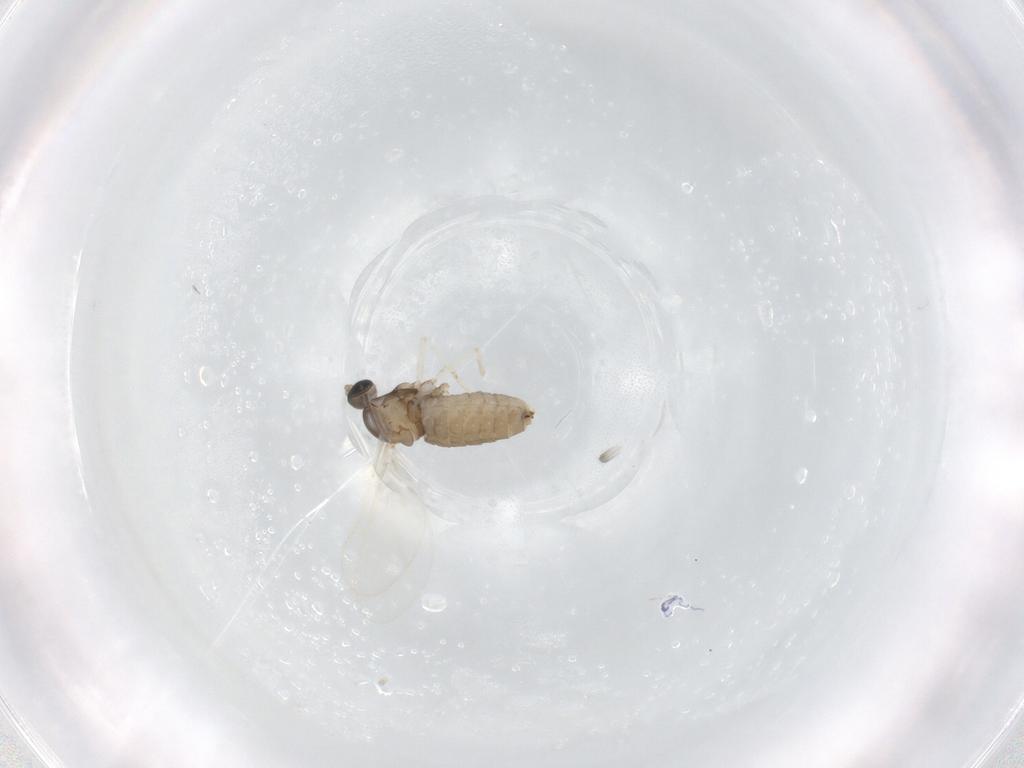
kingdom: Animalia
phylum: Arthropoda
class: Insecta
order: Diptera
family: Cecidomyiidae
